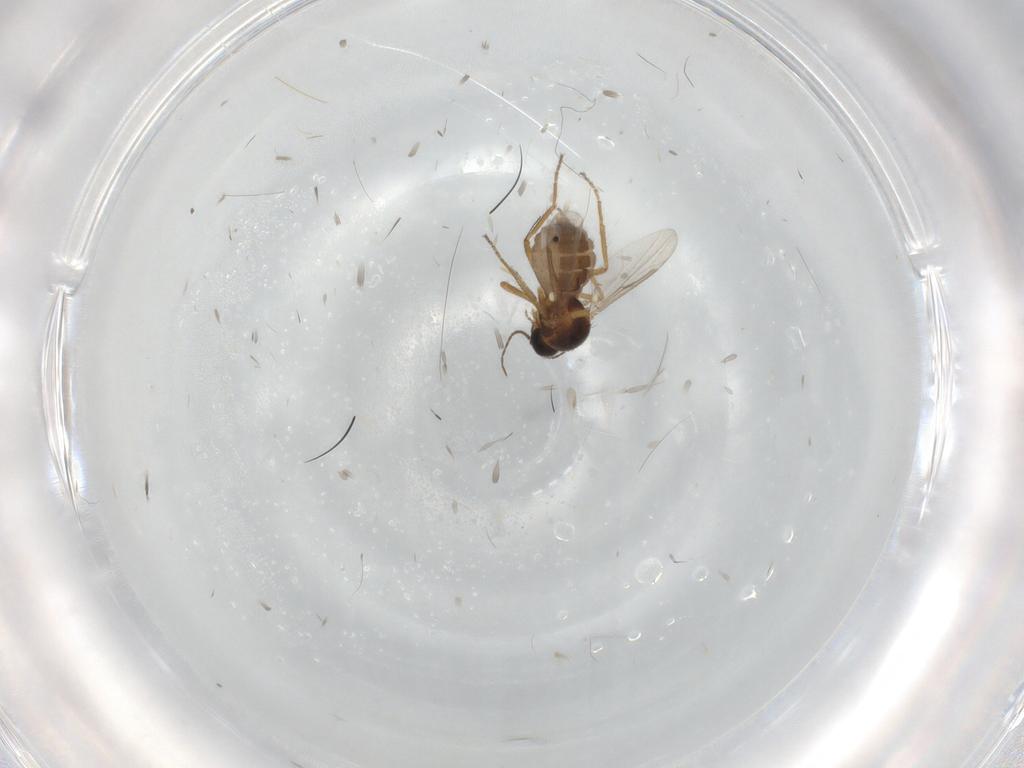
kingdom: Animalia
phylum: Arthropoda
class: Insecta
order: Diptera
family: Ceratopogonidae
